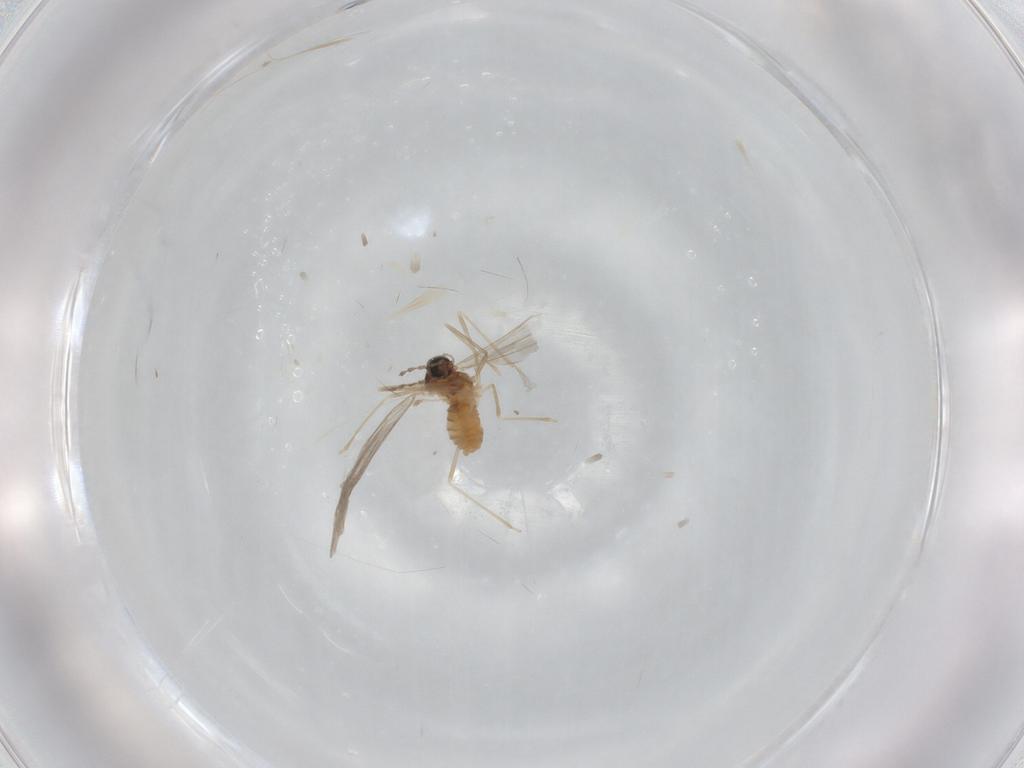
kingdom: Animalia
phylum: Arthropoda
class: Insecta
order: Diptera
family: Cecidomyiidae
